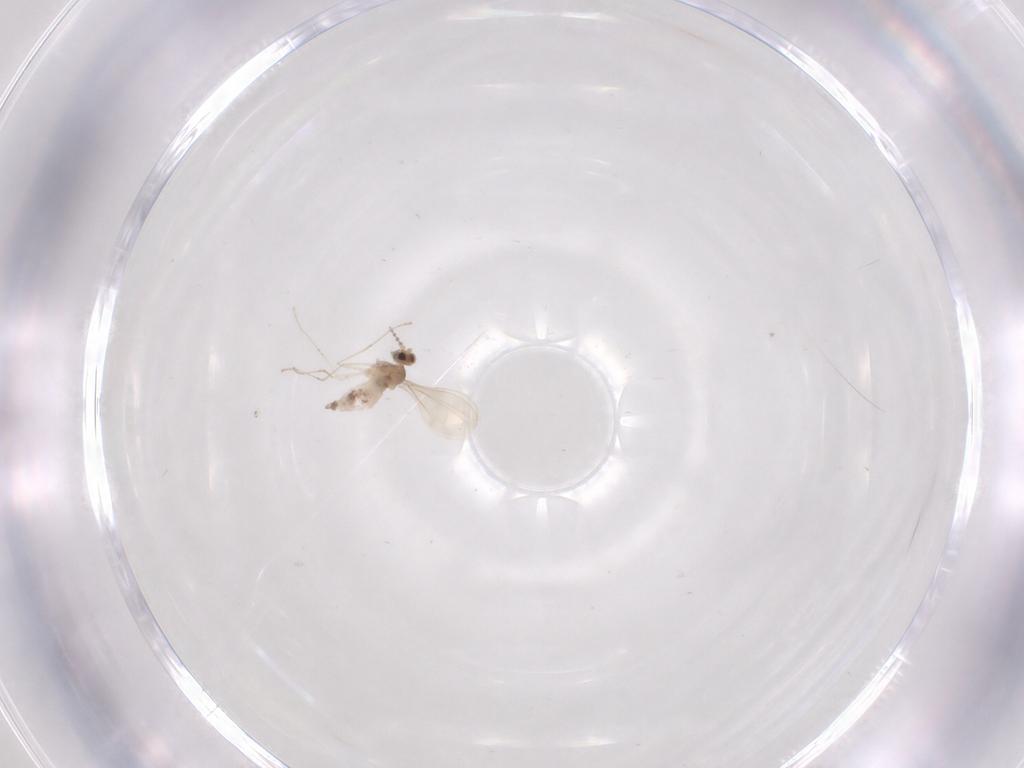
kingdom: Animalia
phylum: Arthropoda
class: Insecta
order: Diptera
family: Cecidomyiidae
